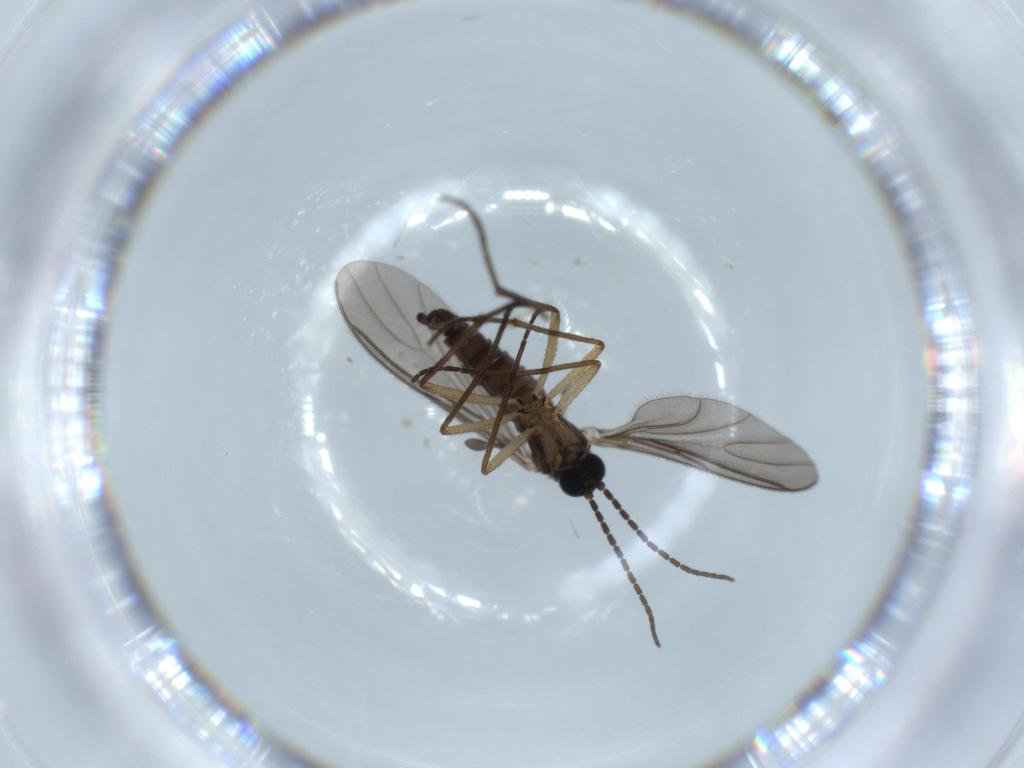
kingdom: Animalia
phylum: Arthropoda
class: Insecta
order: Diptera
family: Sciaridae
